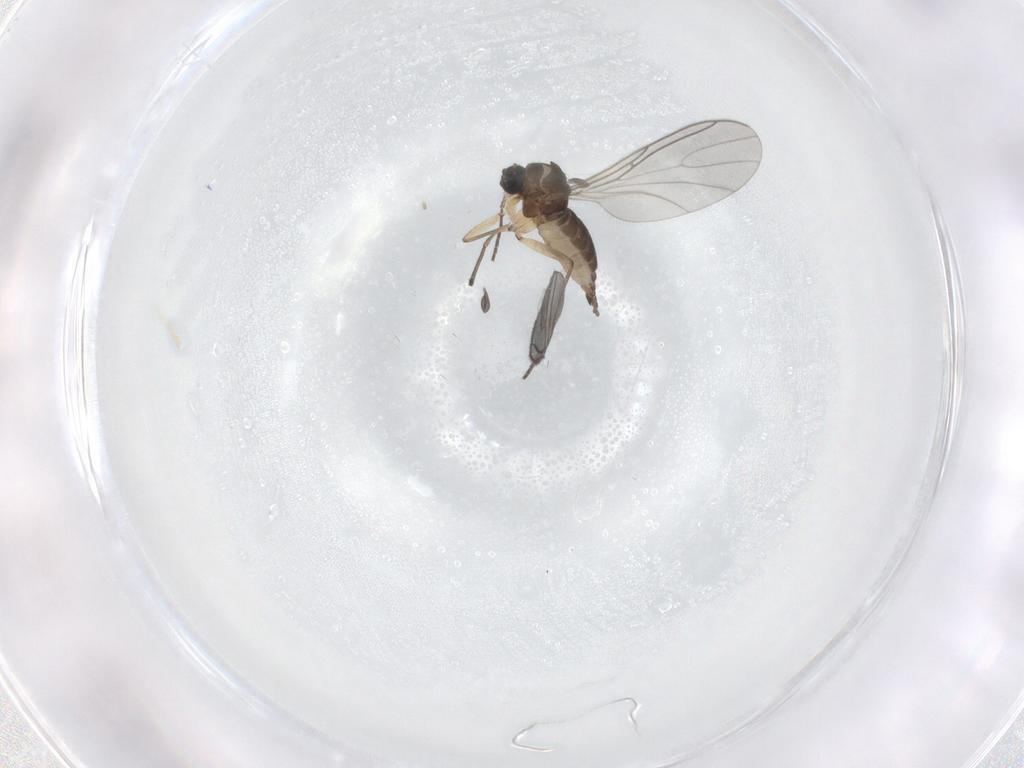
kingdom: Animalia
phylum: Arthropoda
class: Insecta
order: Diptera
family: Sciaridae
